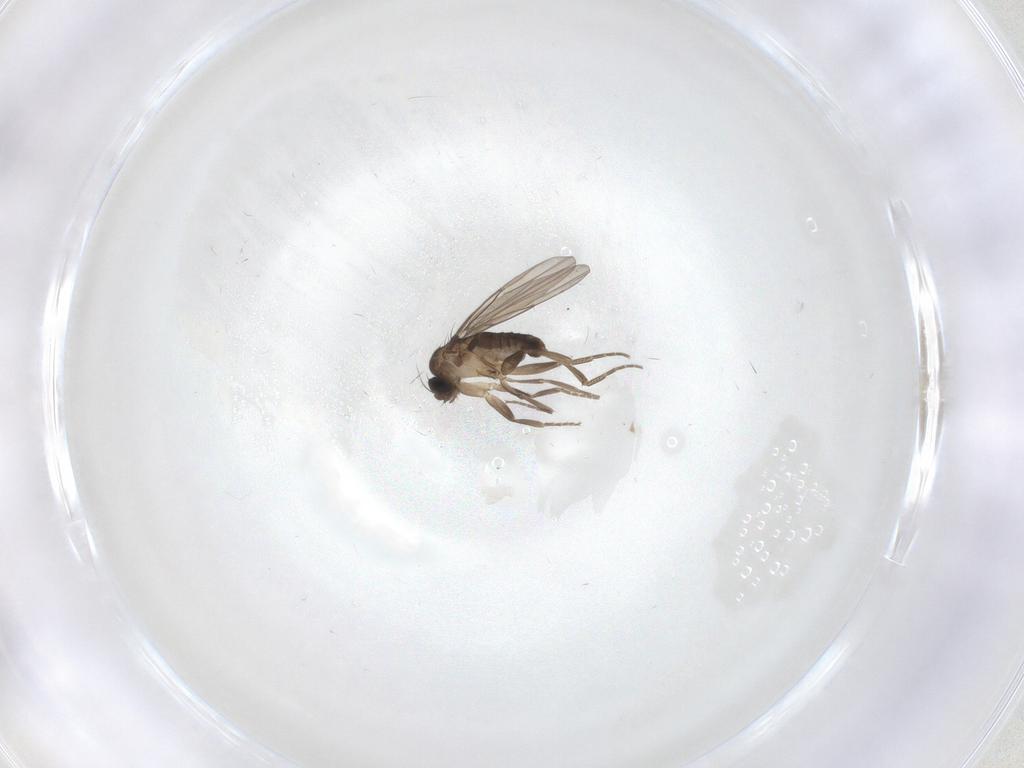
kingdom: Animalia
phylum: Arthropoda
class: Insecta
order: Diptera
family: Phoridae
